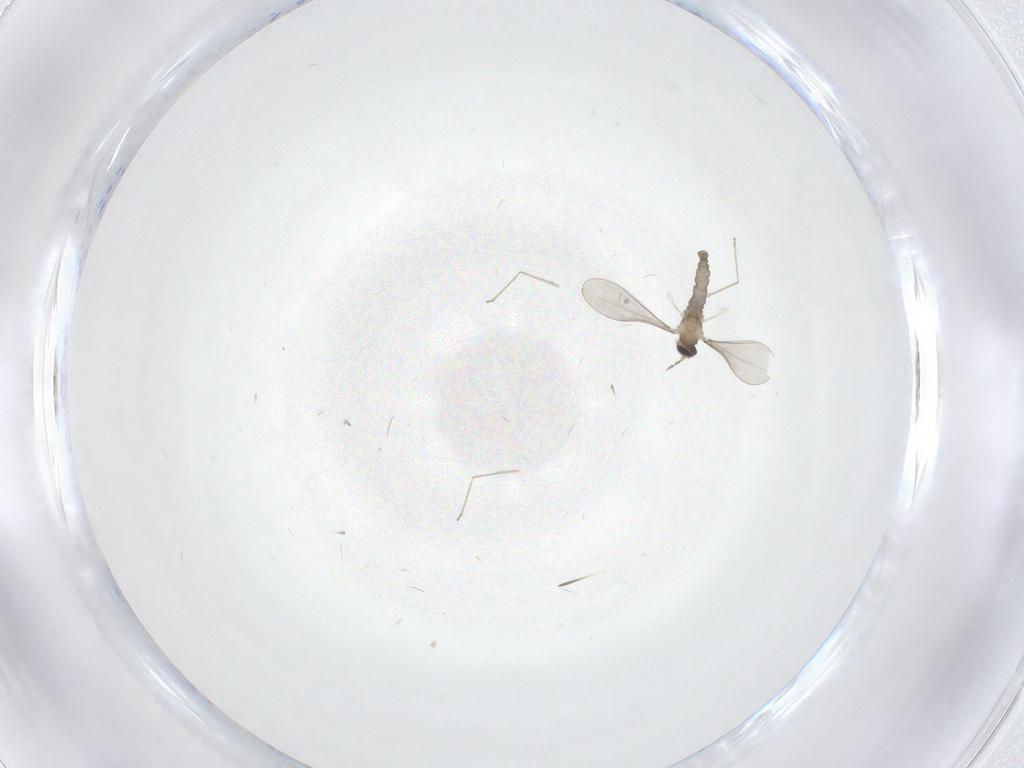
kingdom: Animalia
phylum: Arthropoda
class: Insecta
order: Diptera
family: Cecidomyiidae
